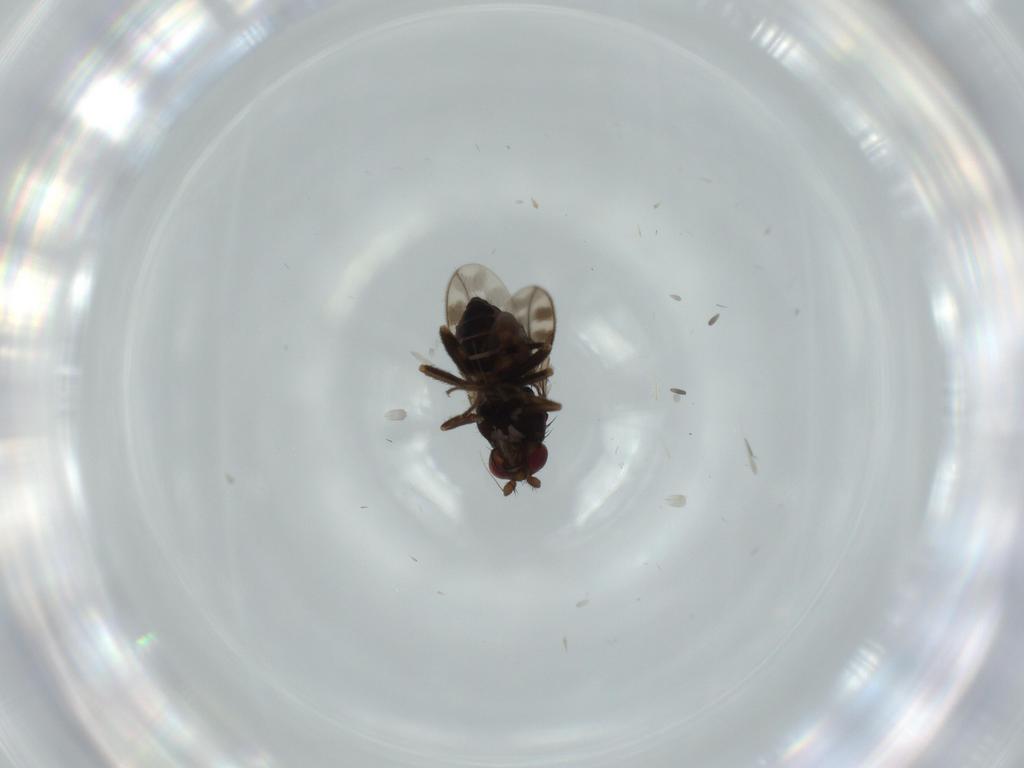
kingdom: Animalia
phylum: Arthropoda
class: Insecta
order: Diptera
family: Sphaeroceridae
